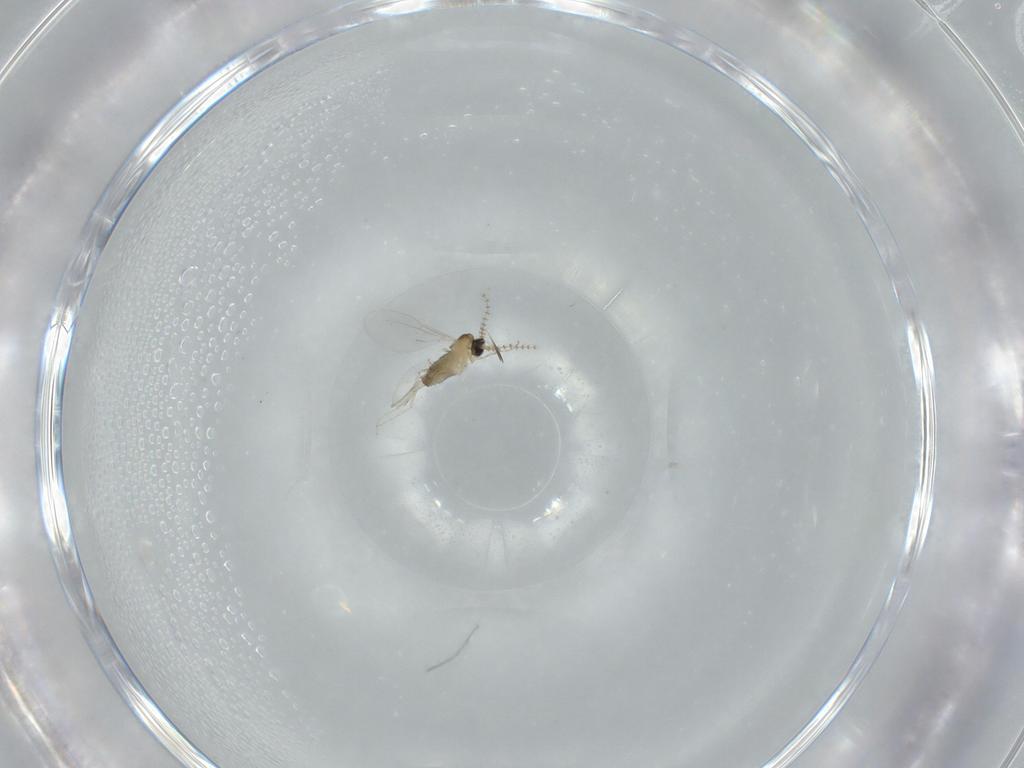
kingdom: Animalia
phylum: Arthropoda
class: Insecta
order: Diptera
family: Cecidomyiidae
